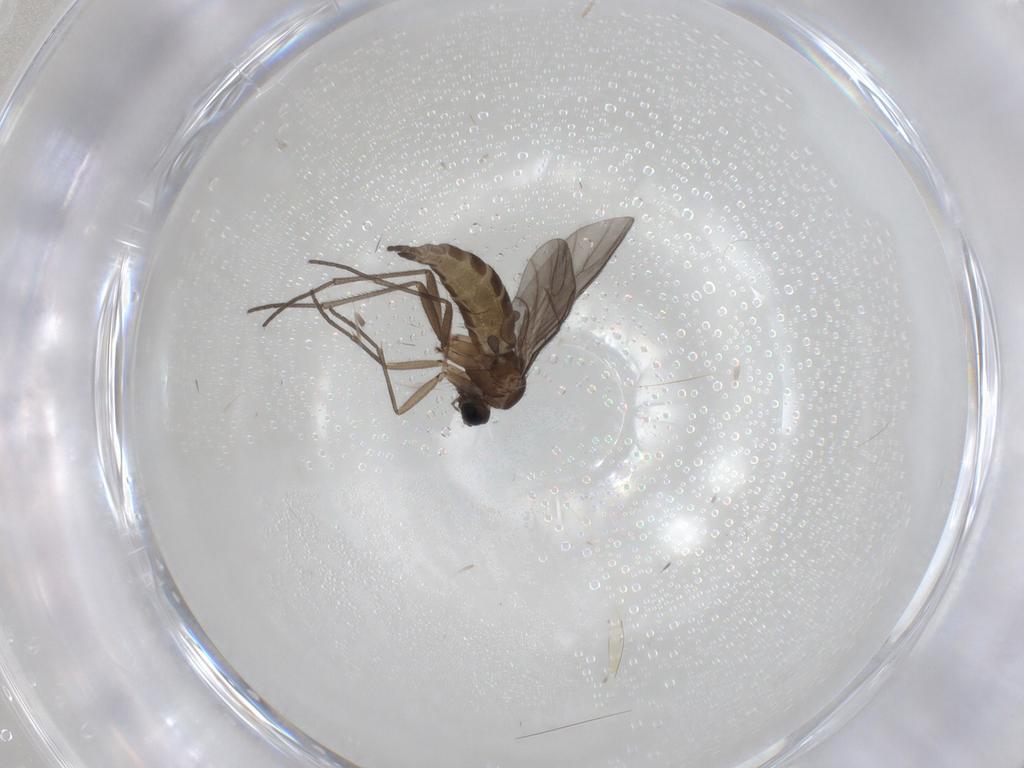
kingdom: Animalia
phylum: Arthropoda
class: Insecta
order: Diptera
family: Sciaridae
